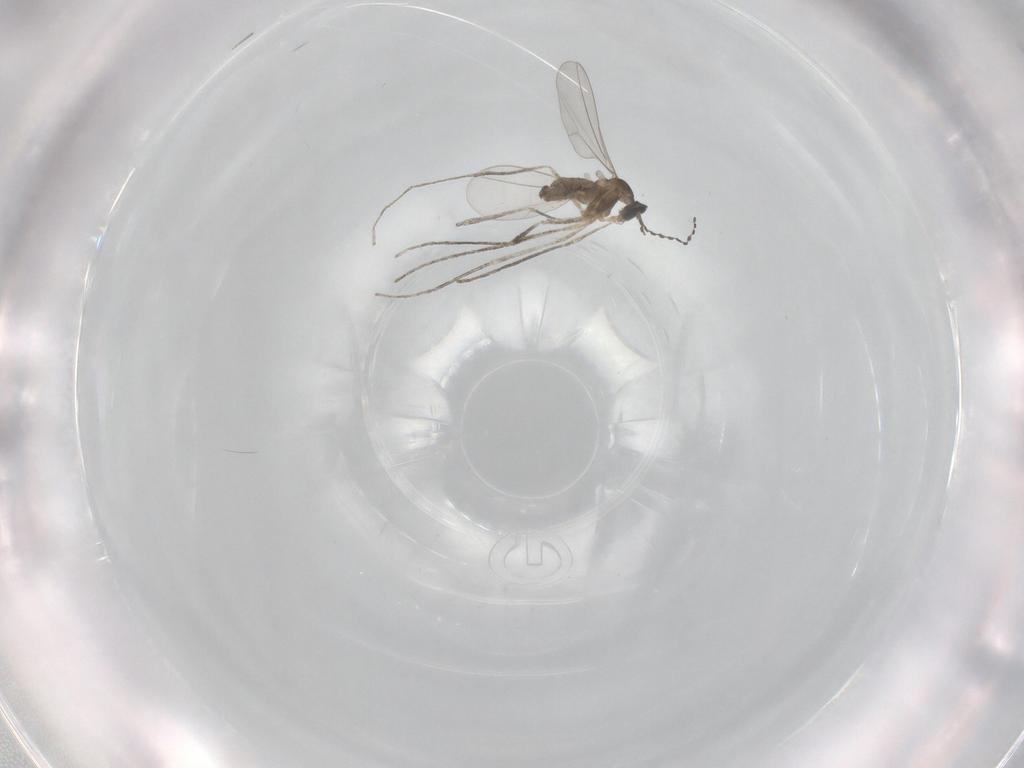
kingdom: Animalia
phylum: Arthropoda
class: Insecta
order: Diptera
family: Cecidomyiidae
